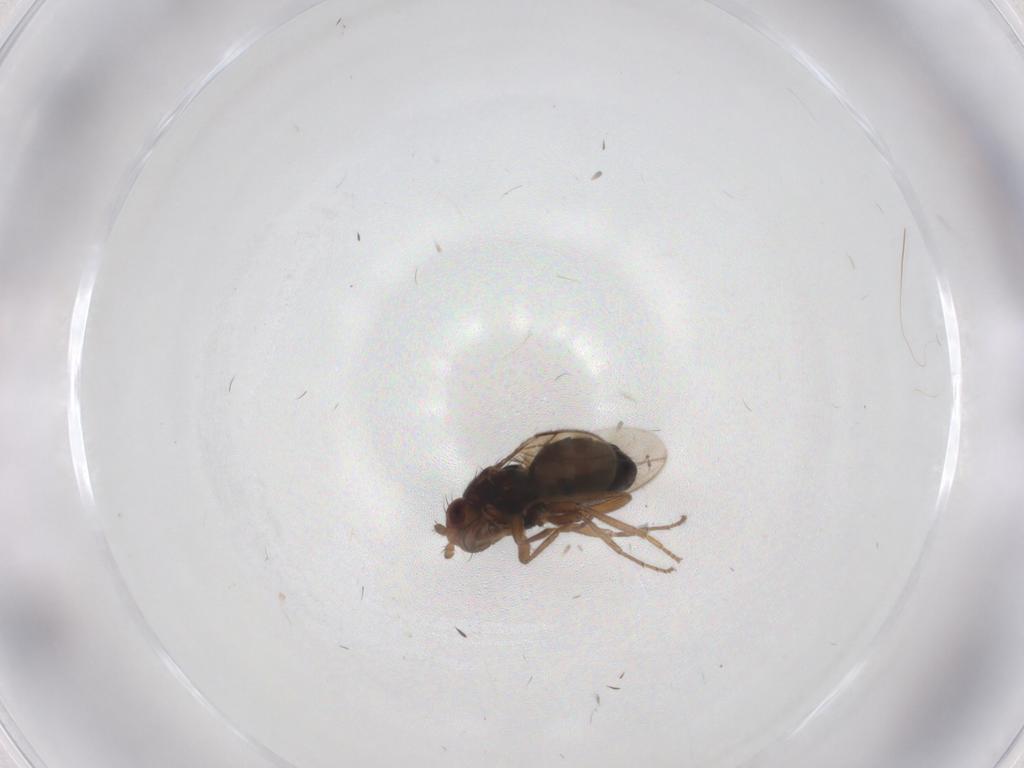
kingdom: Animalia
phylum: Arthropoda
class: Insecta
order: Diptera
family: Sphaeroceridae
